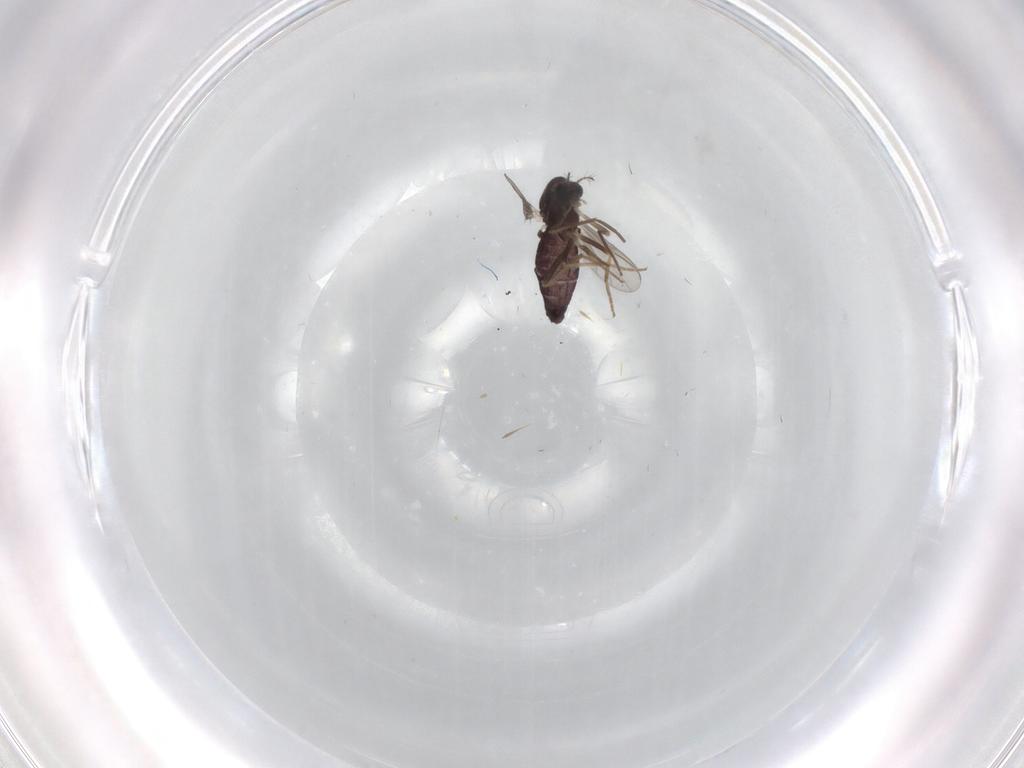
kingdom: Animalia
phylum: Arthropoda
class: Insecta
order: Diptera
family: Chironomidae
